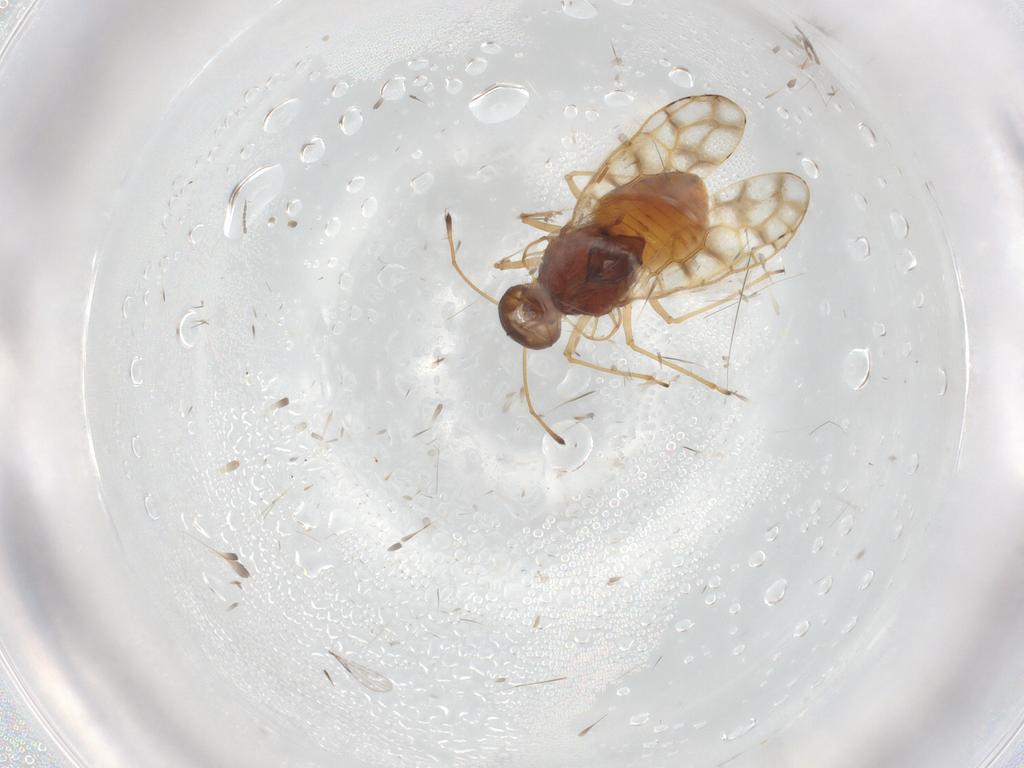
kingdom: Animalia
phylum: Arthropoda
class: Insecta
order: Hemiptera
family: Tingidae
